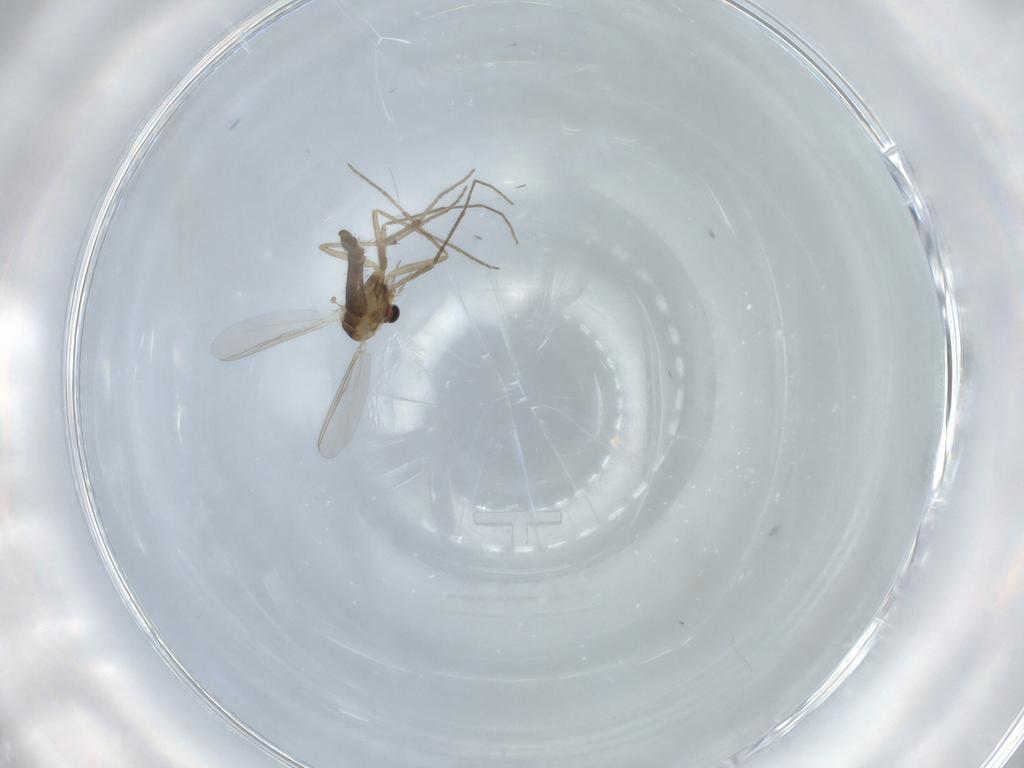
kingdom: Animalia
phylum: Arthropoda
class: Insecta
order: Diptera
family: Chironomidae
